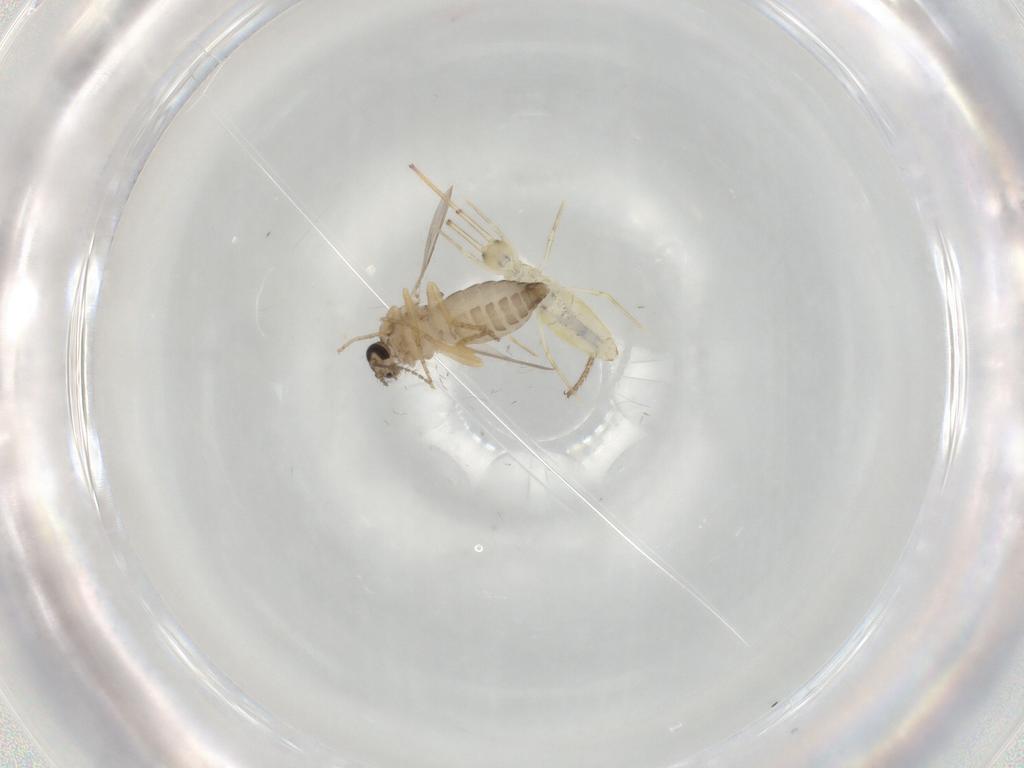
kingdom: Animalia
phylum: Arthropoda
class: Insecta
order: Diptera
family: Ceratopogonidae
